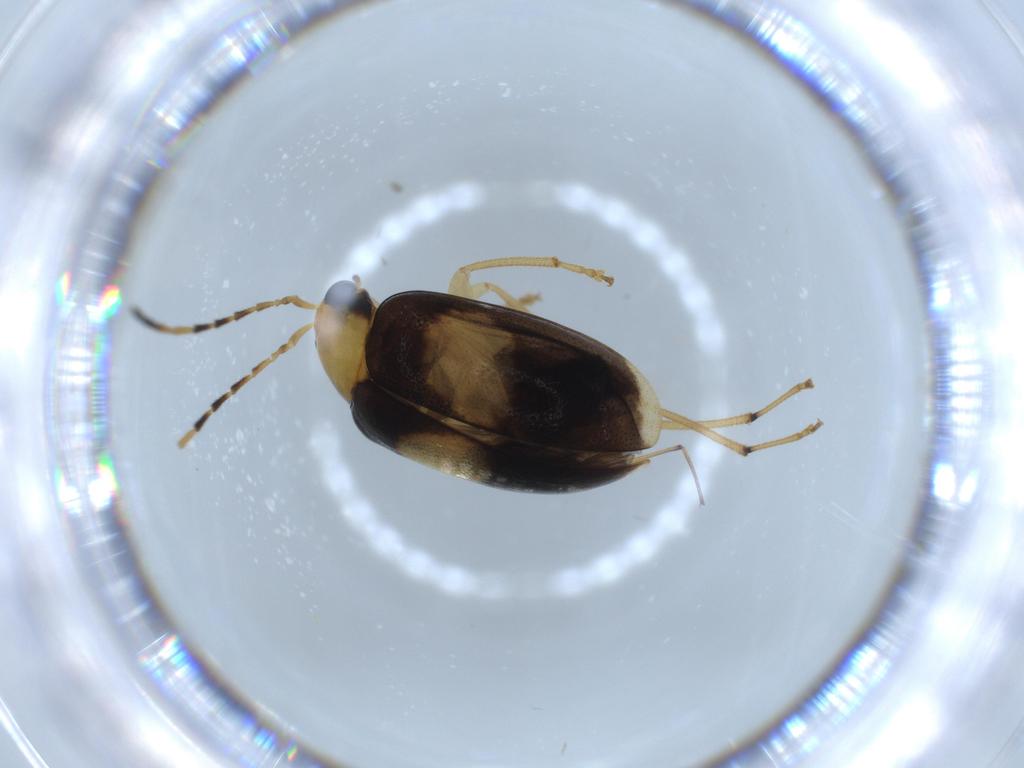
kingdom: Animalia
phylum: Arthropoda
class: Insecta
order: Coleoptera
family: Chrysomelidae
